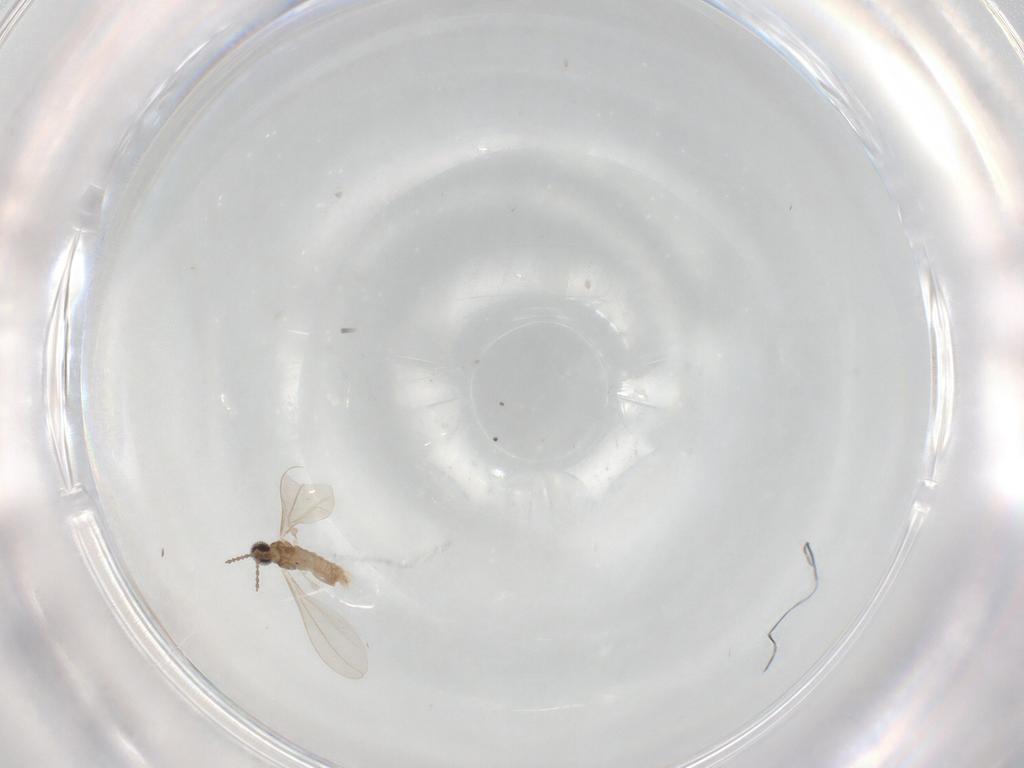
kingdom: Animalia
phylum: Arthropoda
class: Insecta
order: Diptera
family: Cecidomyiidae
